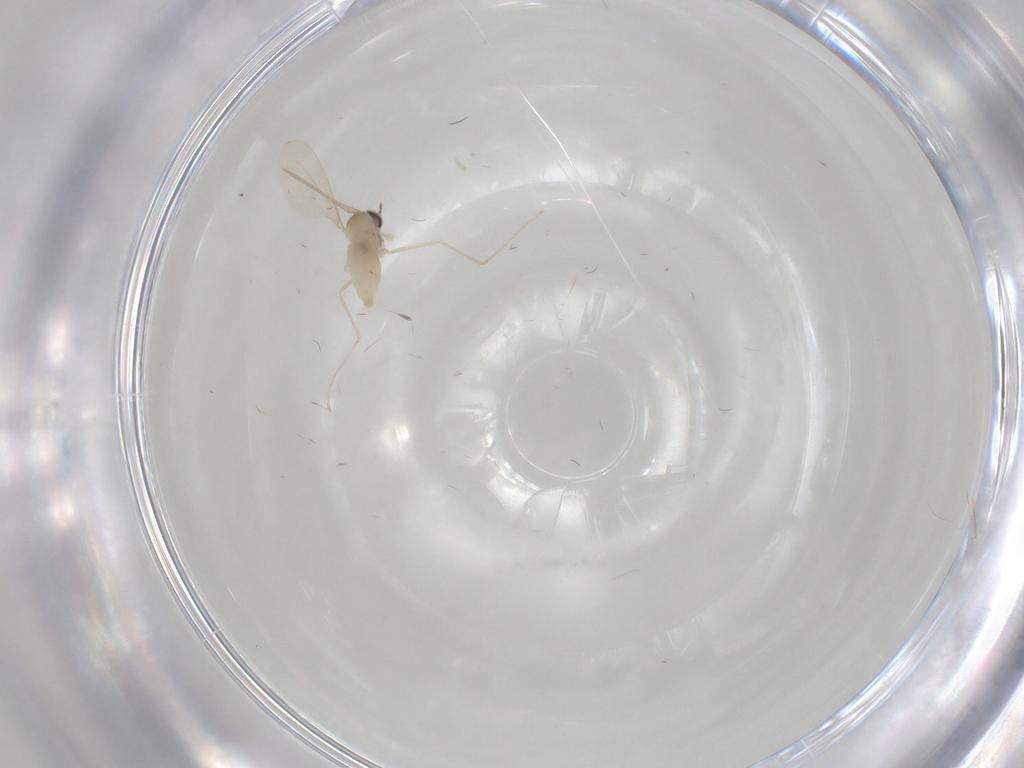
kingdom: Animalia
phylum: Arthropoda
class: Insecta
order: Diptera
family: Cecidomyiidae
